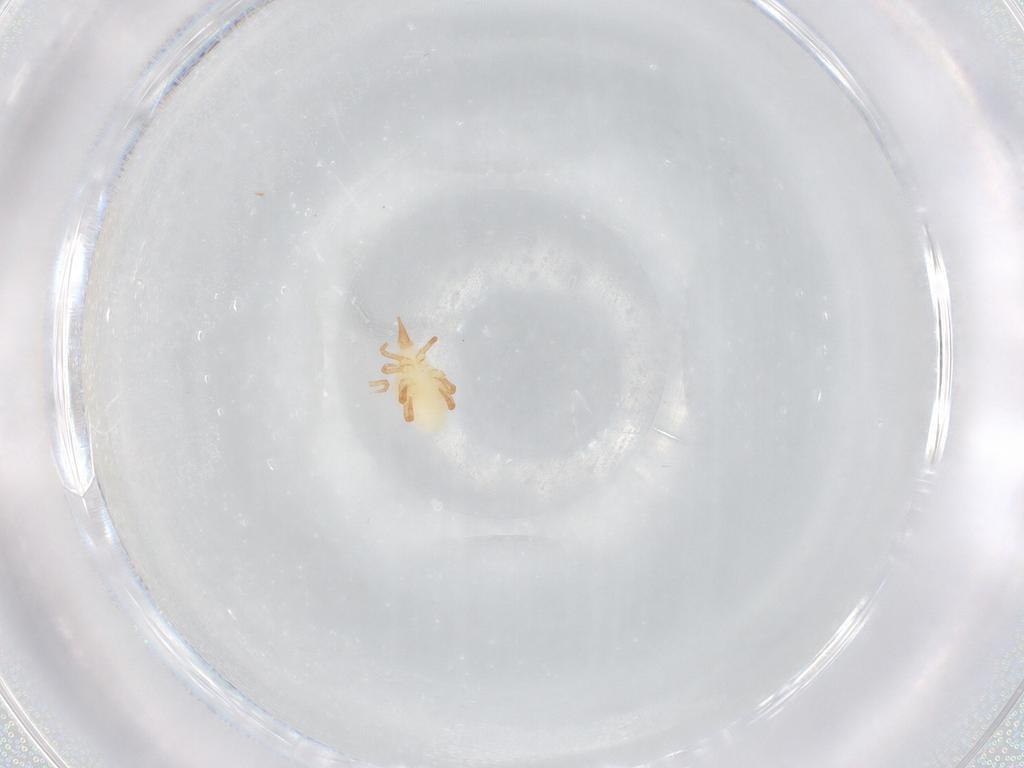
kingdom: Animalia
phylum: Arthropoda
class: Arachnida
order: Trombidiformes
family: Bdellidae
